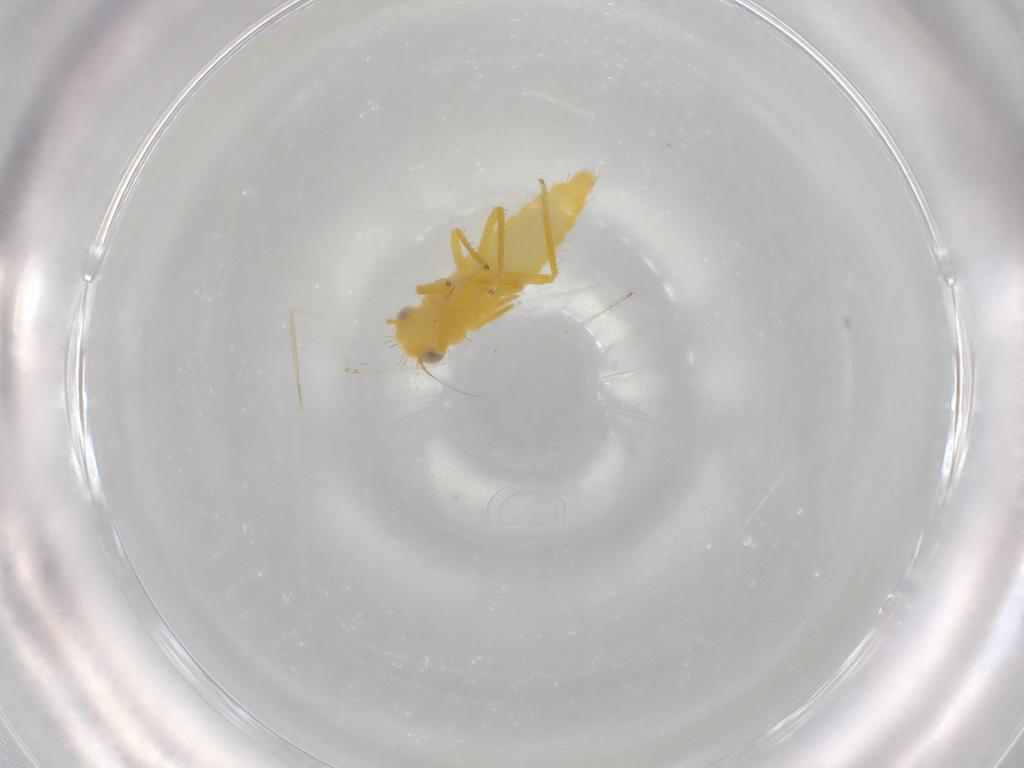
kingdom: Animalia
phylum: Arthropoda
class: Insecta
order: Hemiptera
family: Cicadellidae
